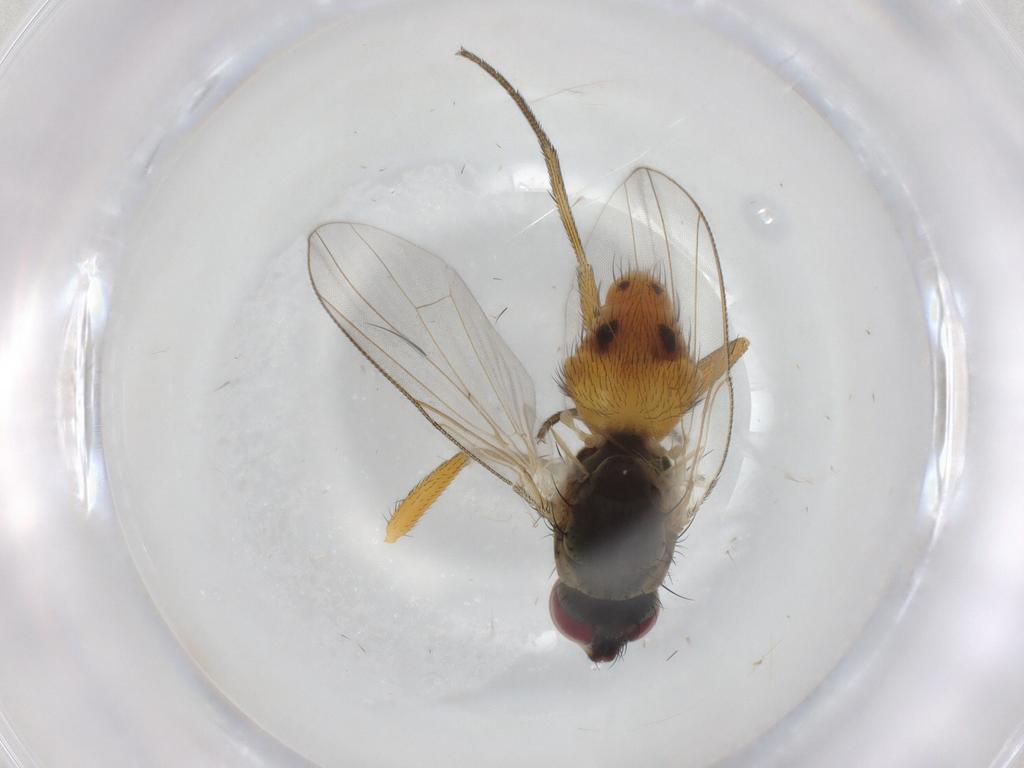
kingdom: Animalia
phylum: Arthropoda
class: Insecta
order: Diptera
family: Muscidae
